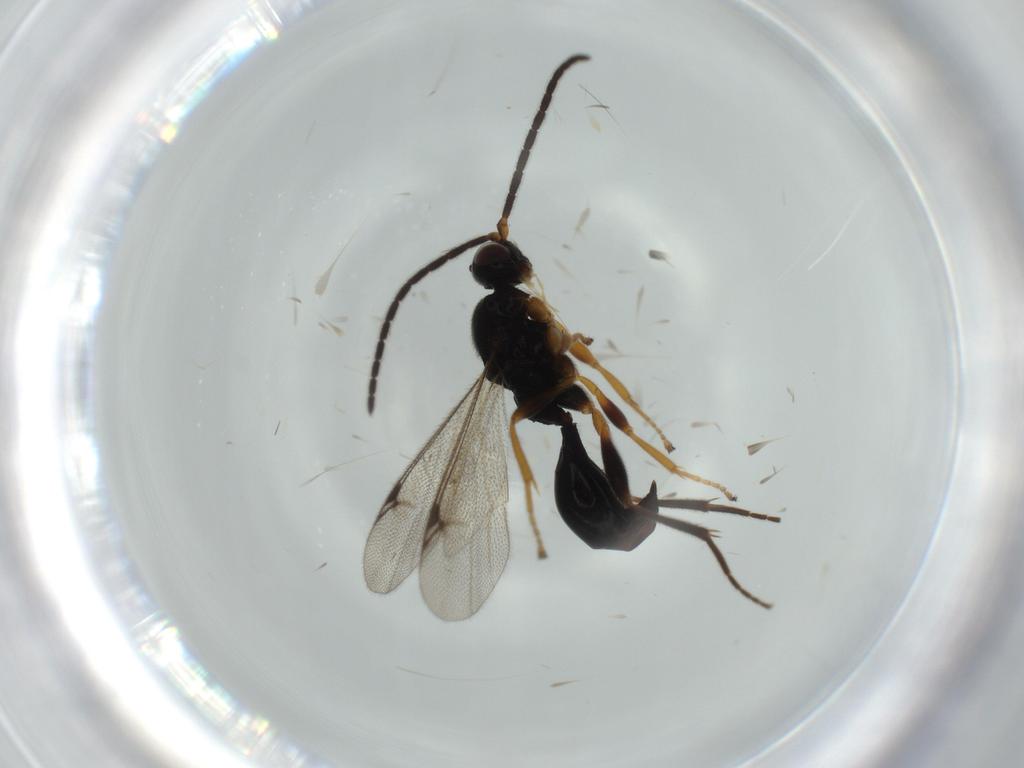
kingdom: Animalia
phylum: Arthropoda
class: Insecta
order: Hymenoptera
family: Proctotrupidae
